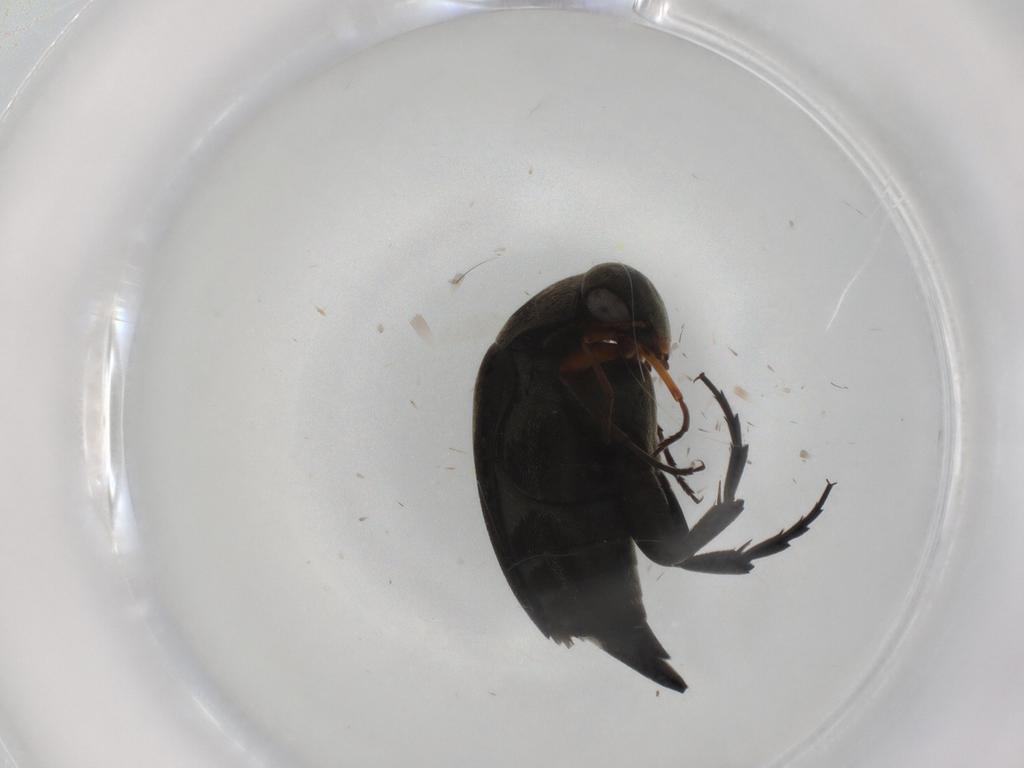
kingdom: Animalia
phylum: Arthropoda
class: Insecta
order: Coleoptera
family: Mordellidae
